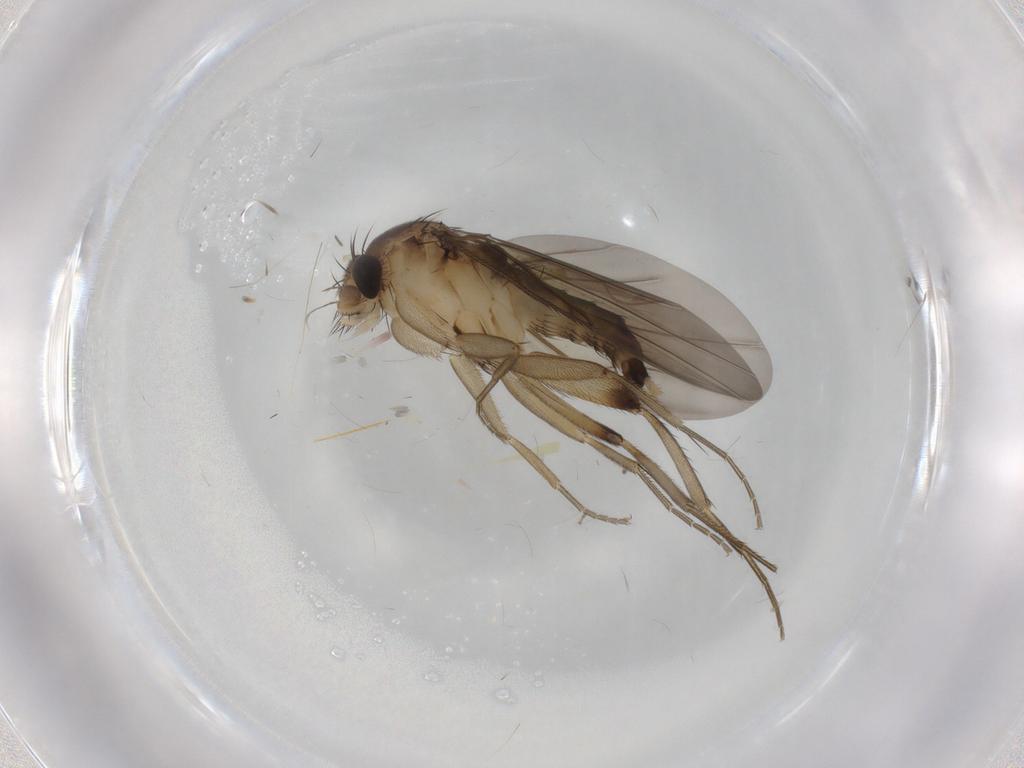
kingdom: Animalia
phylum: Arthropoda
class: Insecta
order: Diptera
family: Phoridae
